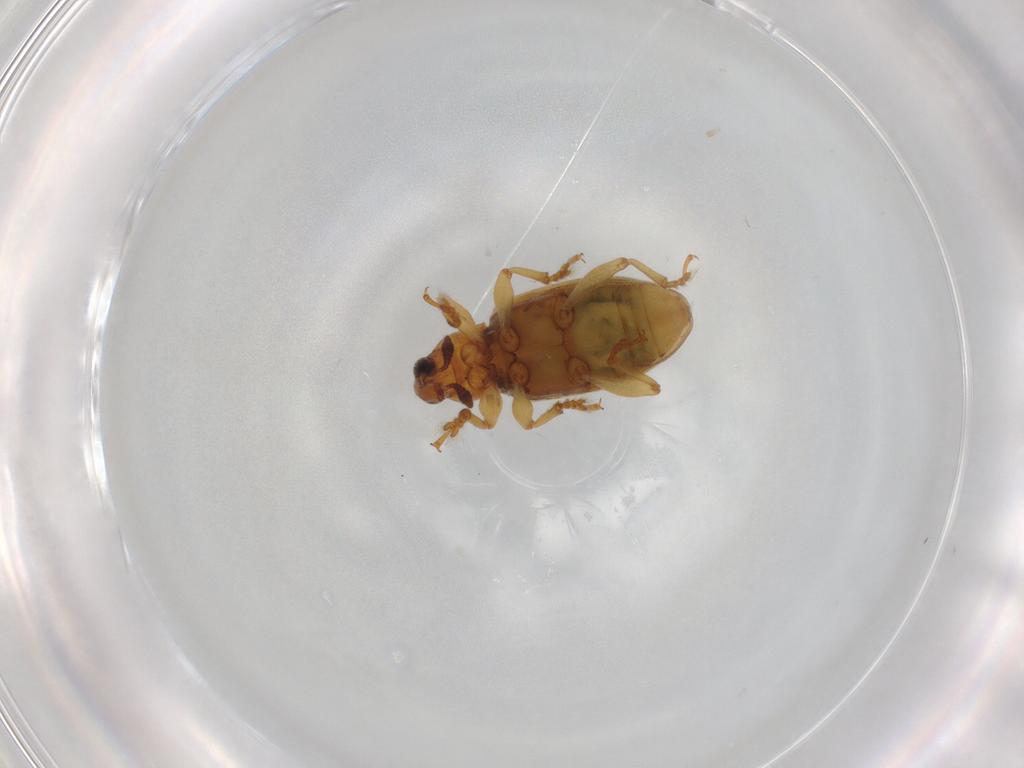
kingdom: Animalia
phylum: Arthropoda
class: Insecta
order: Coleoptera
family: Curculionidae
